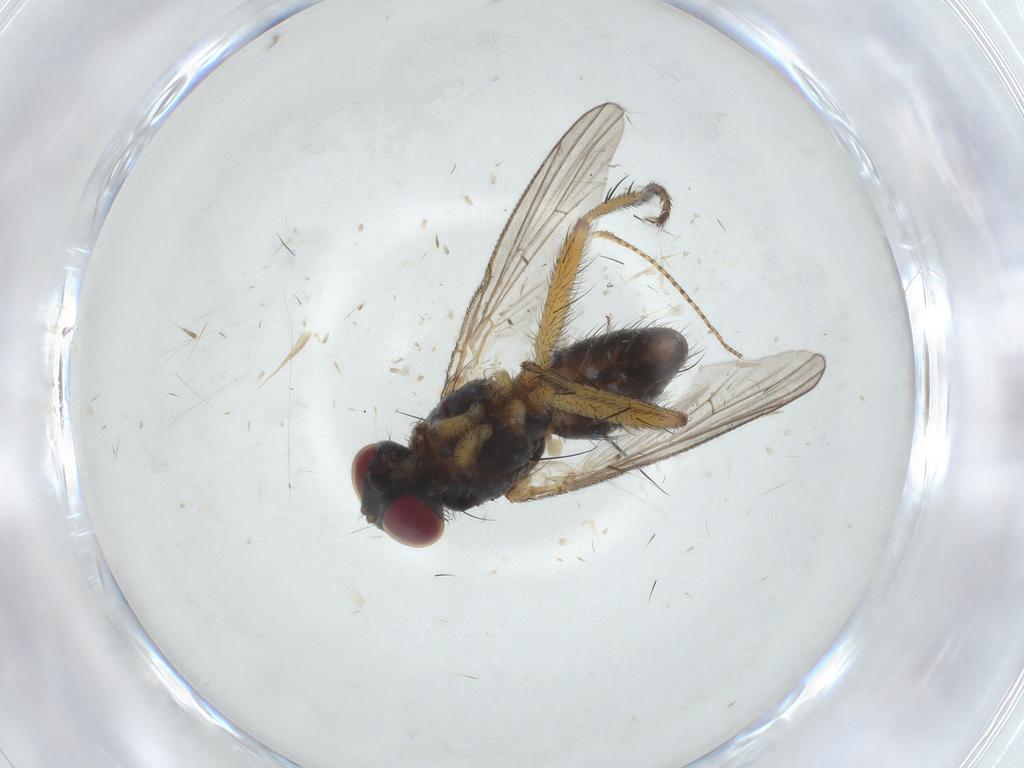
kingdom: Animalia
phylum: Arthropoda
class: Insecta
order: Diptera
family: Muscidae
